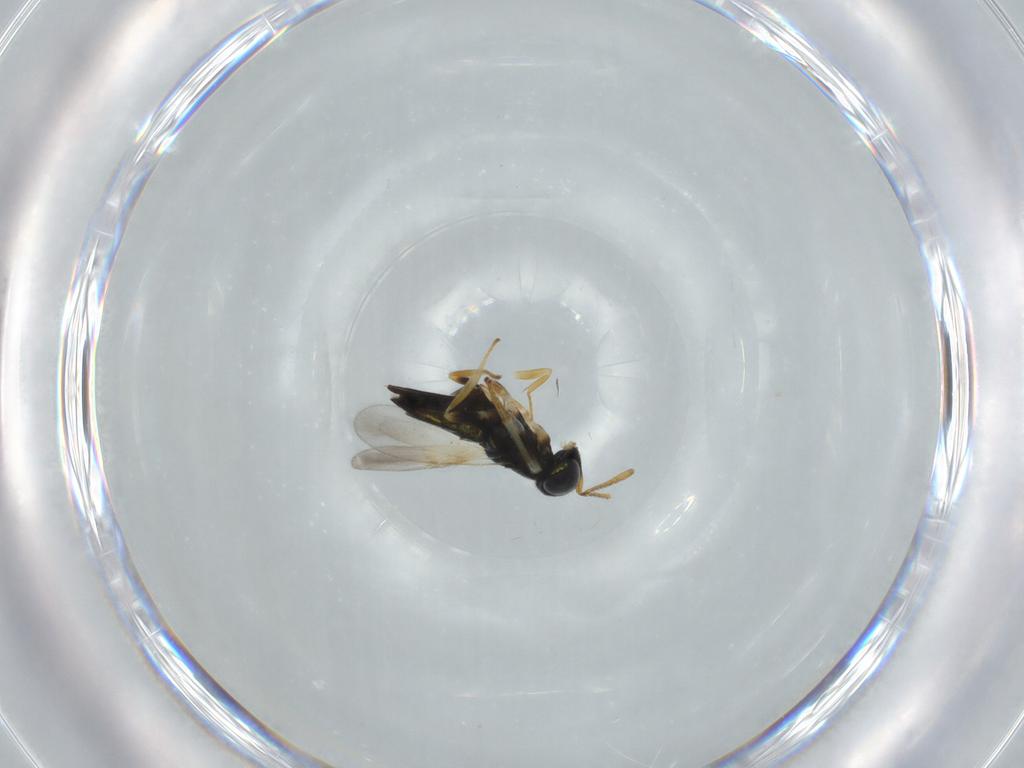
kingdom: Animalia
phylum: Arthropoda
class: Insecta
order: Hymenoptera
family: Encyrtidae
